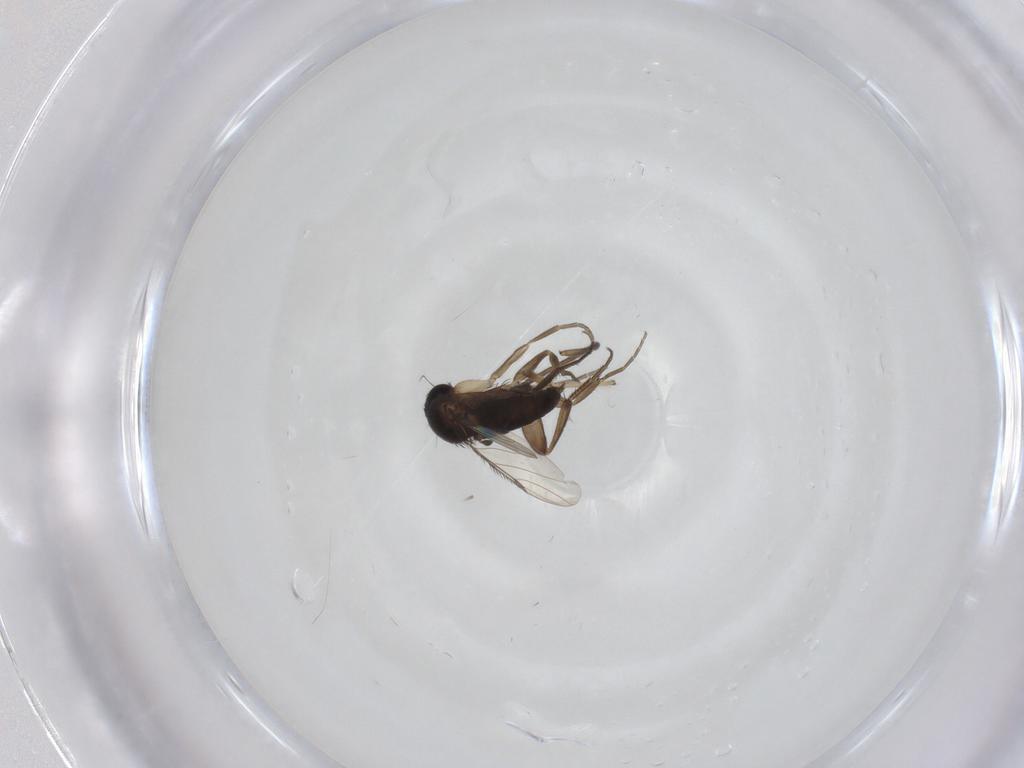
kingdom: Animalia
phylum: Arthropoda
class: Insecta
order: Diptera
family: Phoridae
